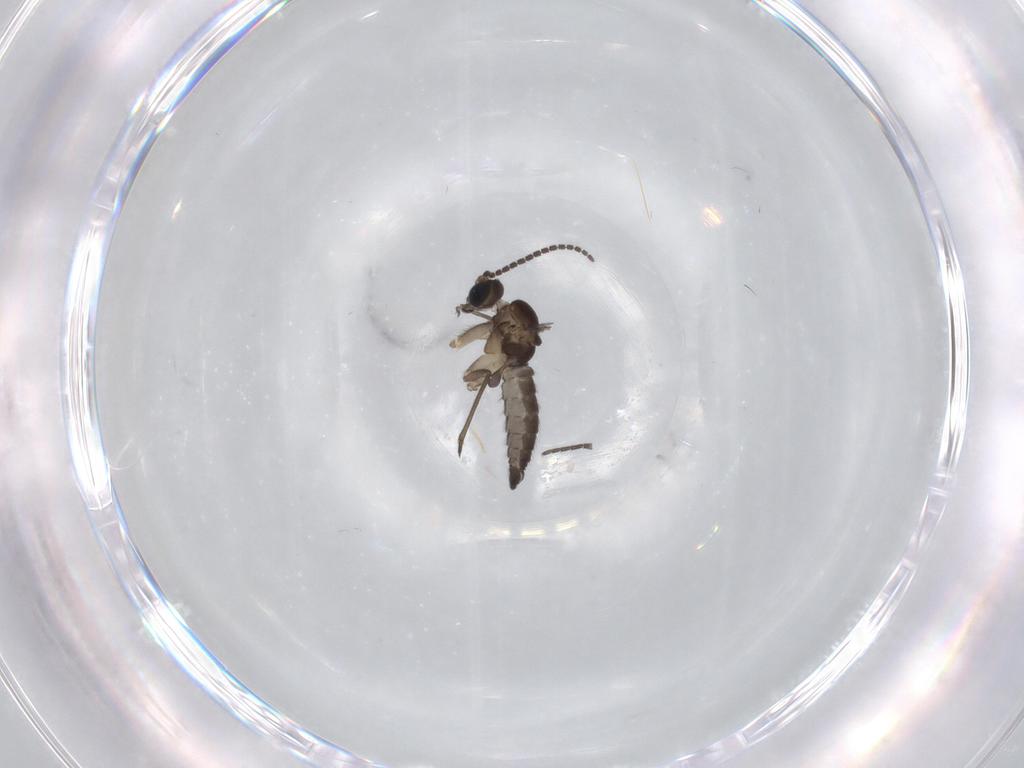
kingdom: Animalia
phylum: Arthropoda
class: Insecta
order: Diptera
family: Sciaridae
